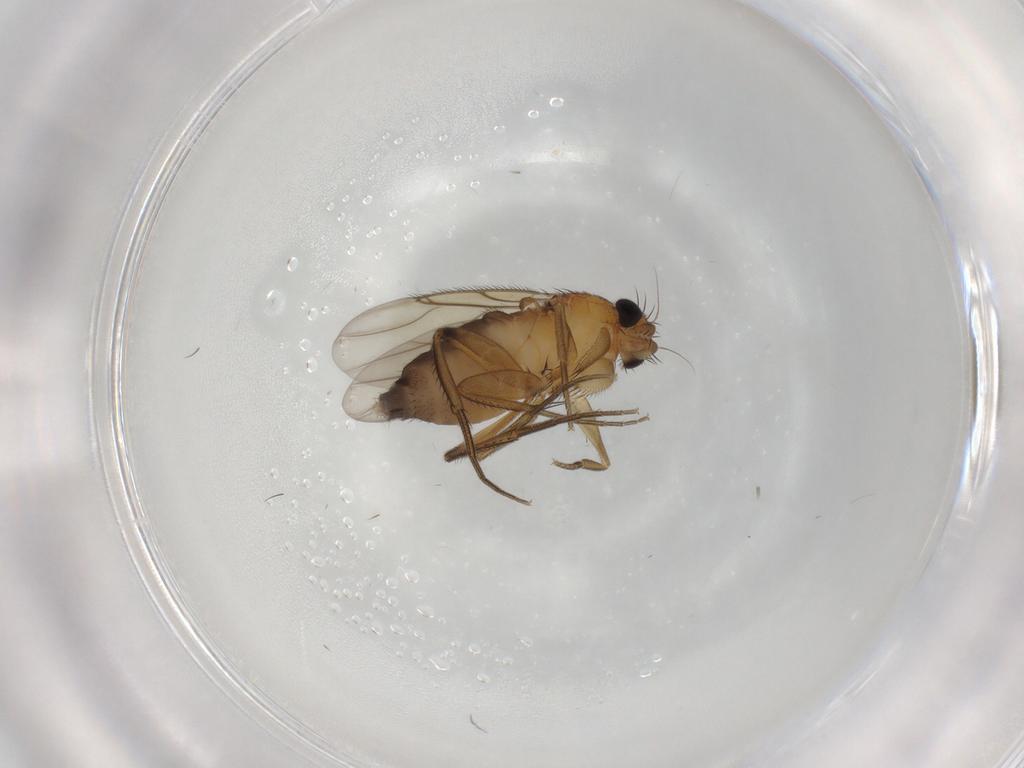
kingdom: Animalia
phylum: Arthropoda
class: Insecta
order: Diptera
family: Phoridae
